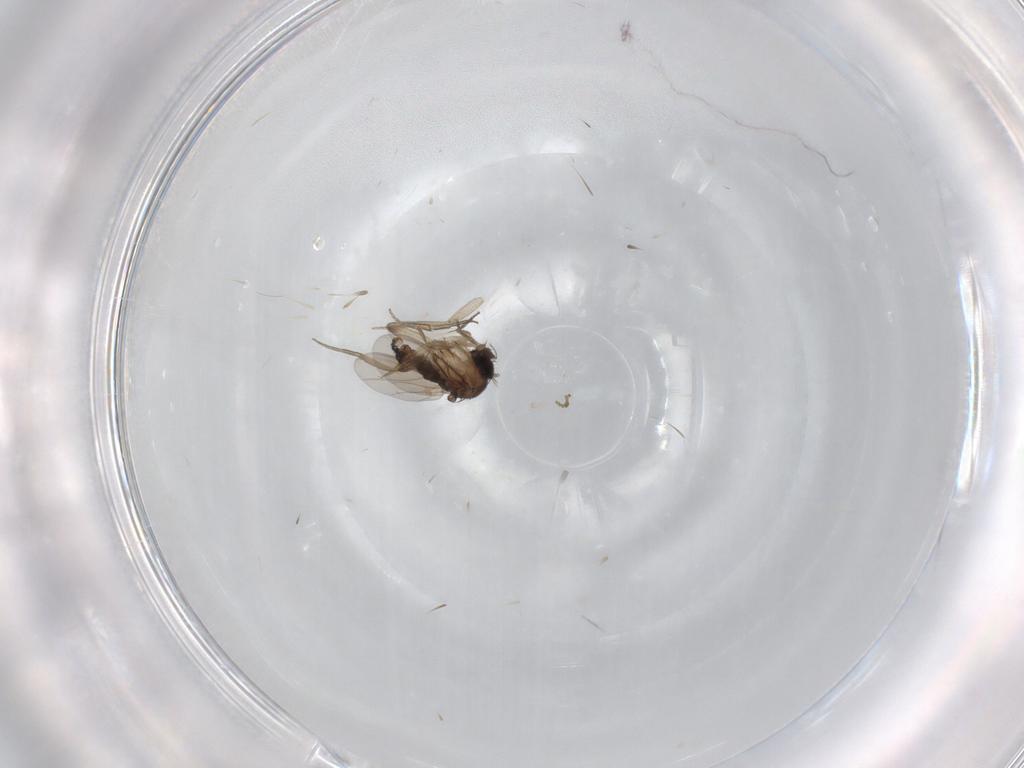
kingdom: Animalia
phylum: Arthropoda
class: Insecta
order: Diptera
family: Phoridae
